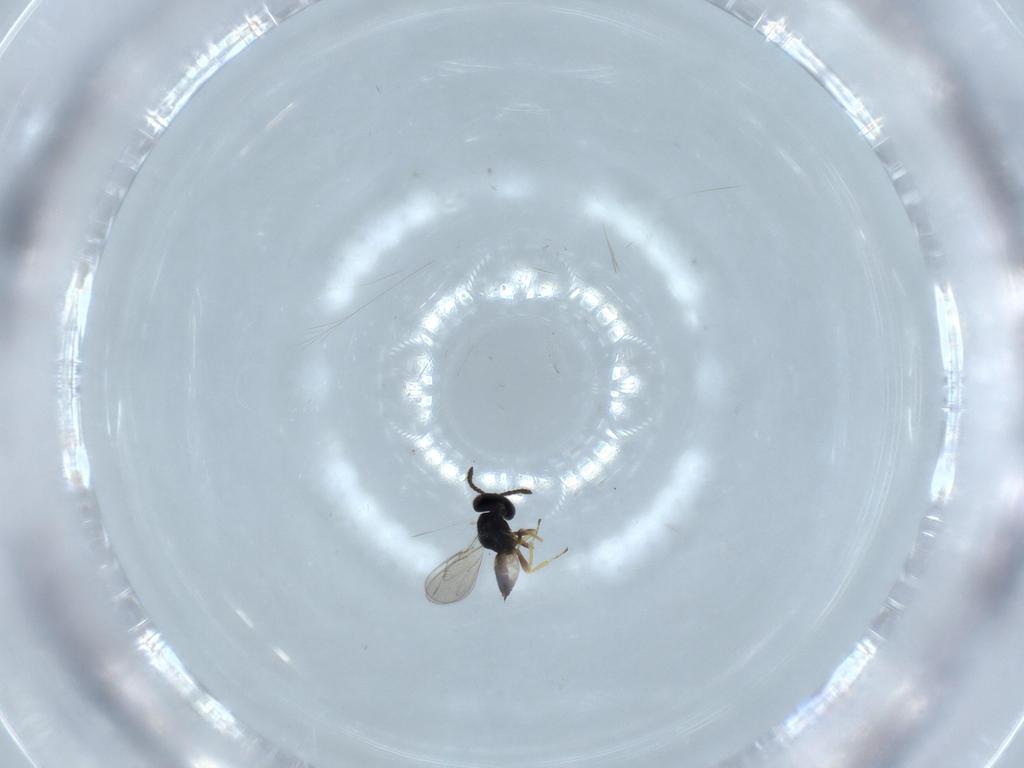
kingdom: Animalia
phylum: Arthropoda
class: Insecta
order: Hymenoptera
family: Pteromalidae
